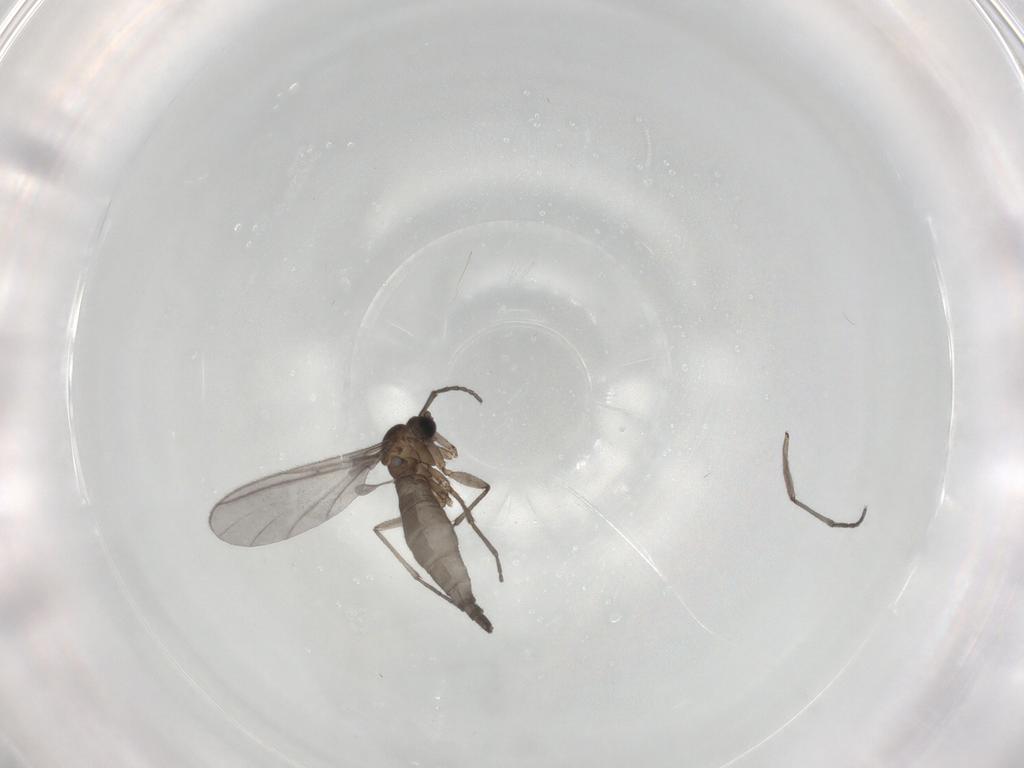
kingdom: Animalia
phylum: Arthropoda
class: Insecta
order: Diptera
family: Sciaridae
